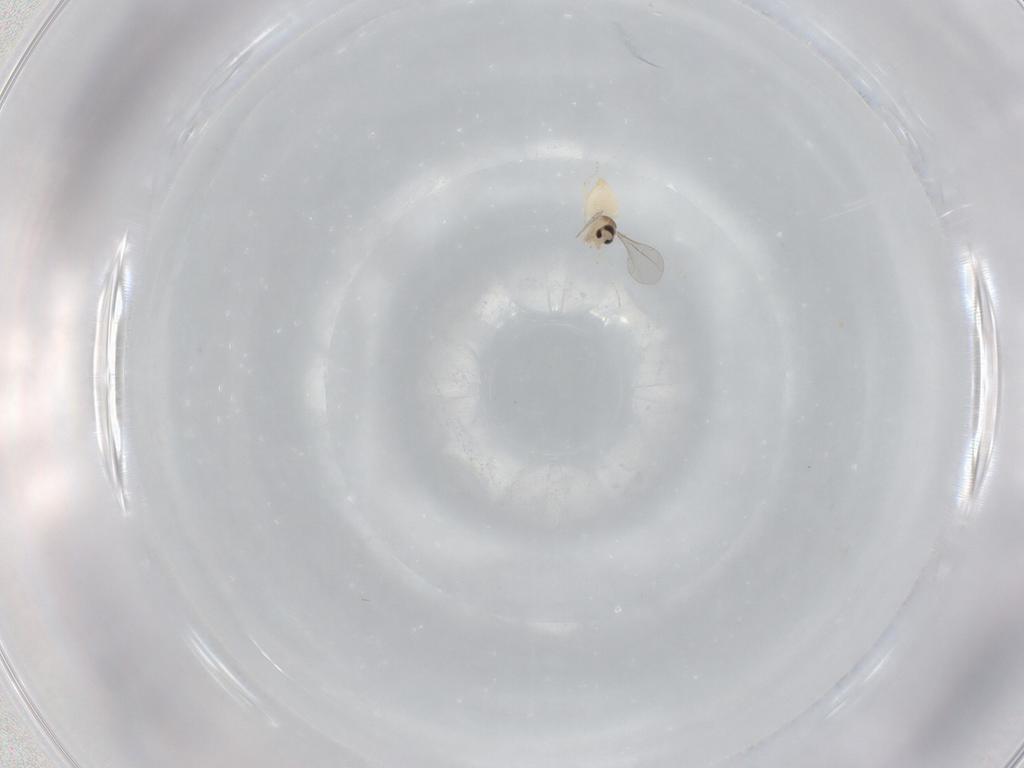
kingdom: Animalia
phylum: Arthropoda
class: Insecta
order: Diptera
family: Cecidomyiidae
